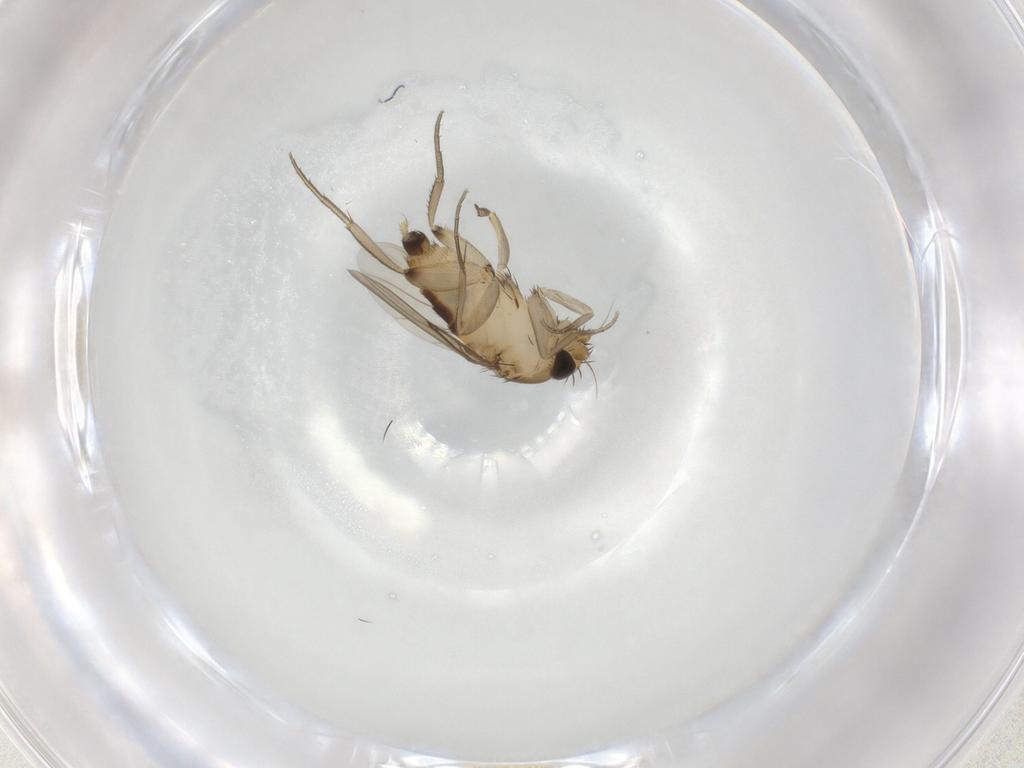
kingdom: Animalia
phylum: Arthropoda
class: Insecta
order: Diptera
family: Phoridae
